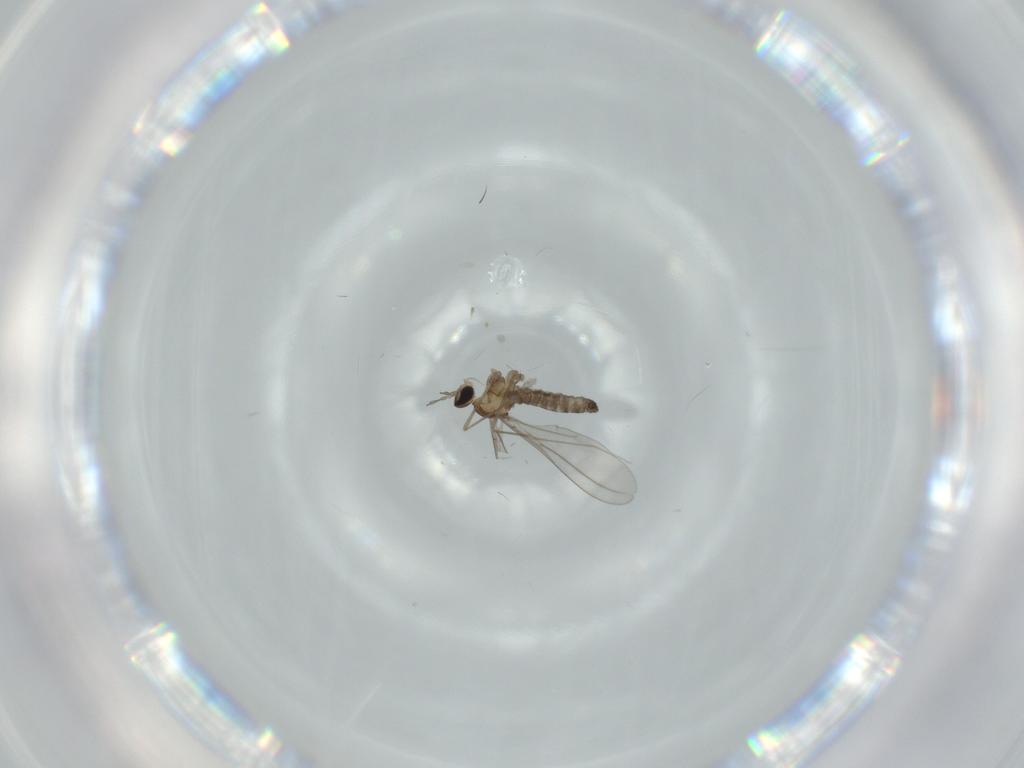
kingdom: Animalia
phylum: Arthropoda
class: Insecta
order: Diptera
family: Cecidomyiidae
